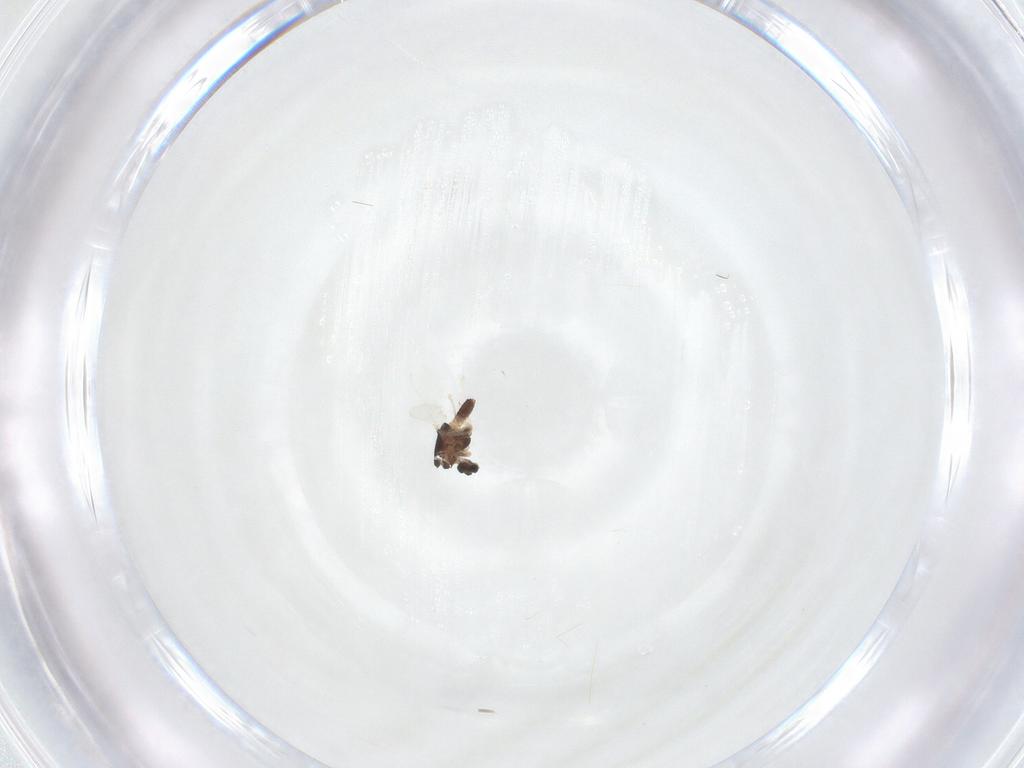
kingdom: Animalia
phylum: Arthropoda
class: Insecta
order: Diptera
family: Chironomidae
